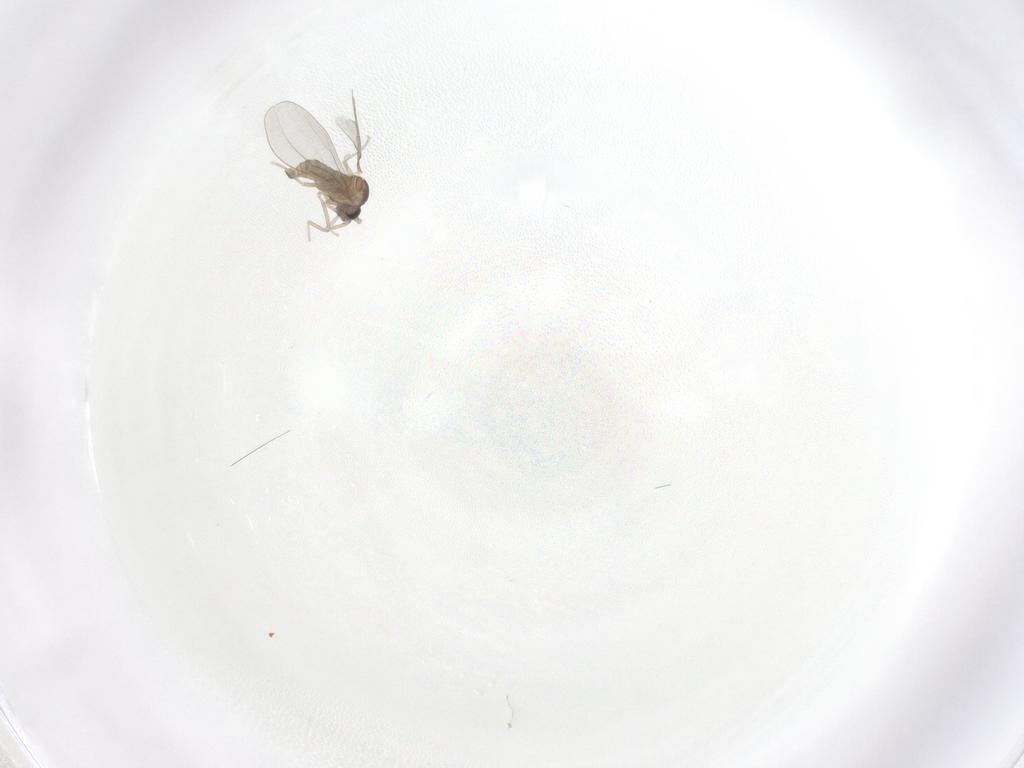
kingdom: Animalia
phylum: Arthropoda
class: Insecta
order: Diptera
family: Cecidomyiidae
